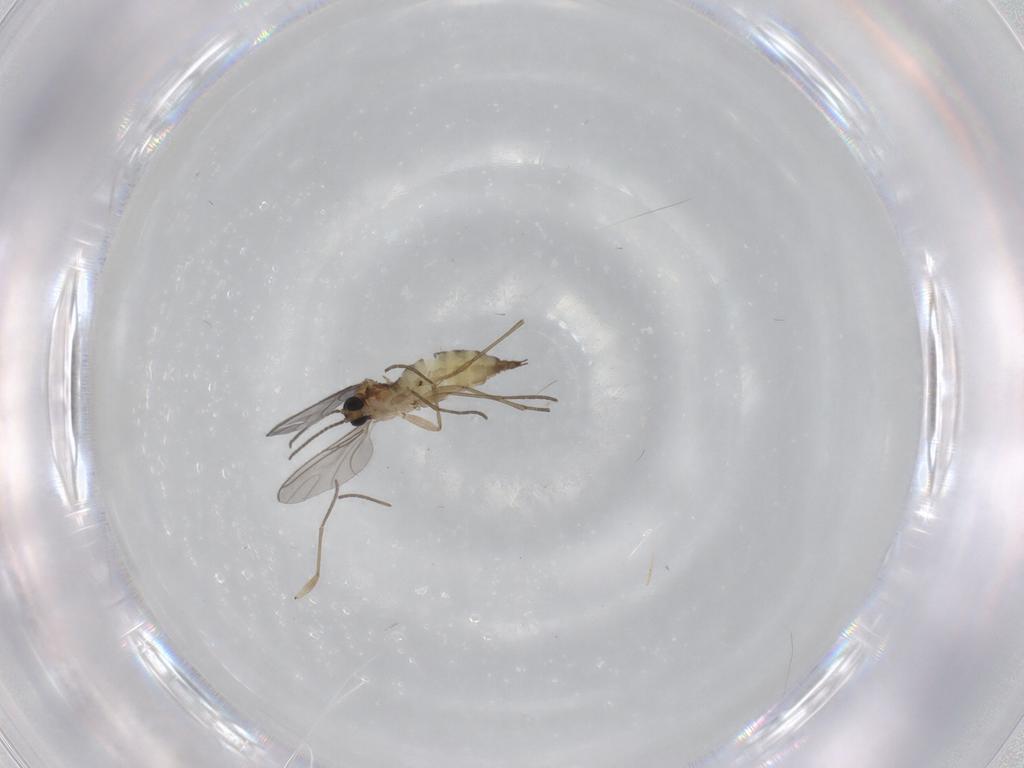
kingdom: Animalia
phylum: Arthropoda
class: Insecta
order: Diptera
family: Sciaridae
